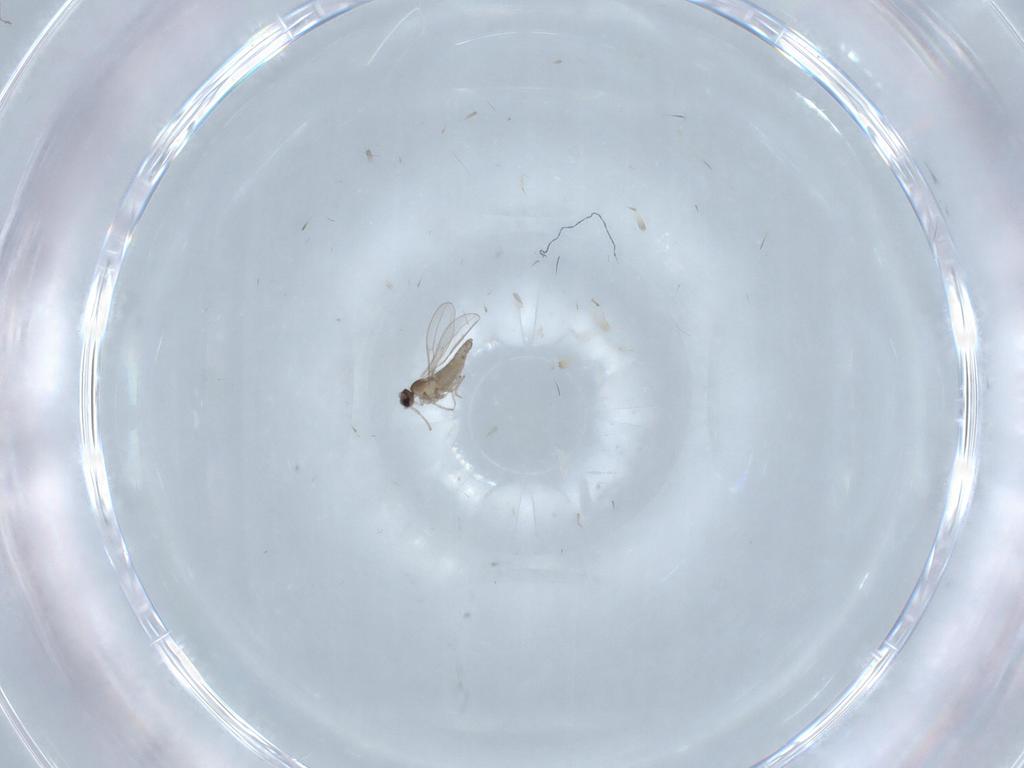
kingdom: Animalia
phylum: Arthropoda
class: Insecta
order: Diptera
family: Cecidomyiidae
